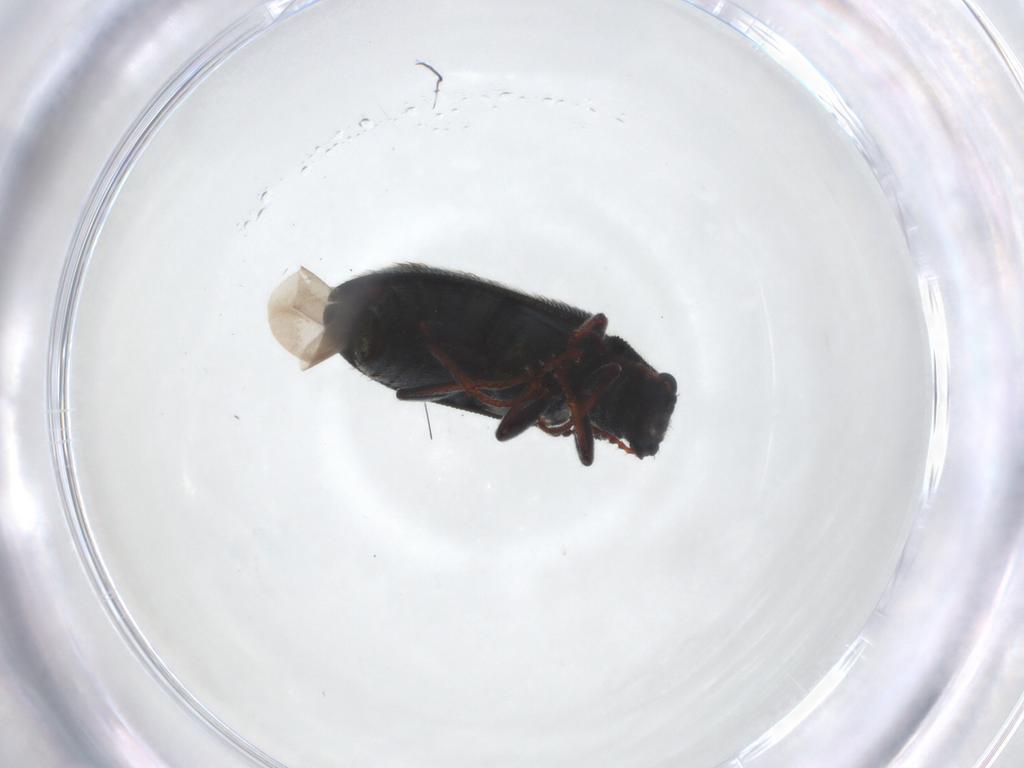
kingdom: Animalia
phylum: Arthropoda
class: Insecta
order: Coleoptera
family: Melyridae
